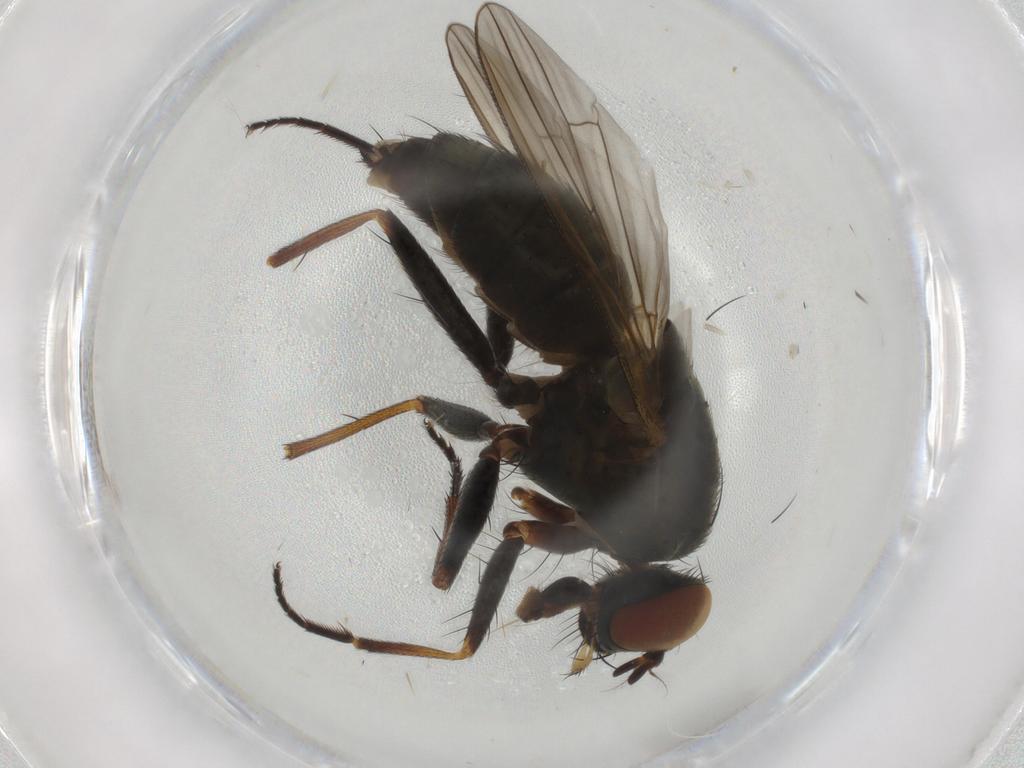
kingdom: Animalia
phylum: Arthropoda
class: Insecta
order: Diptera
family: Muscidae
